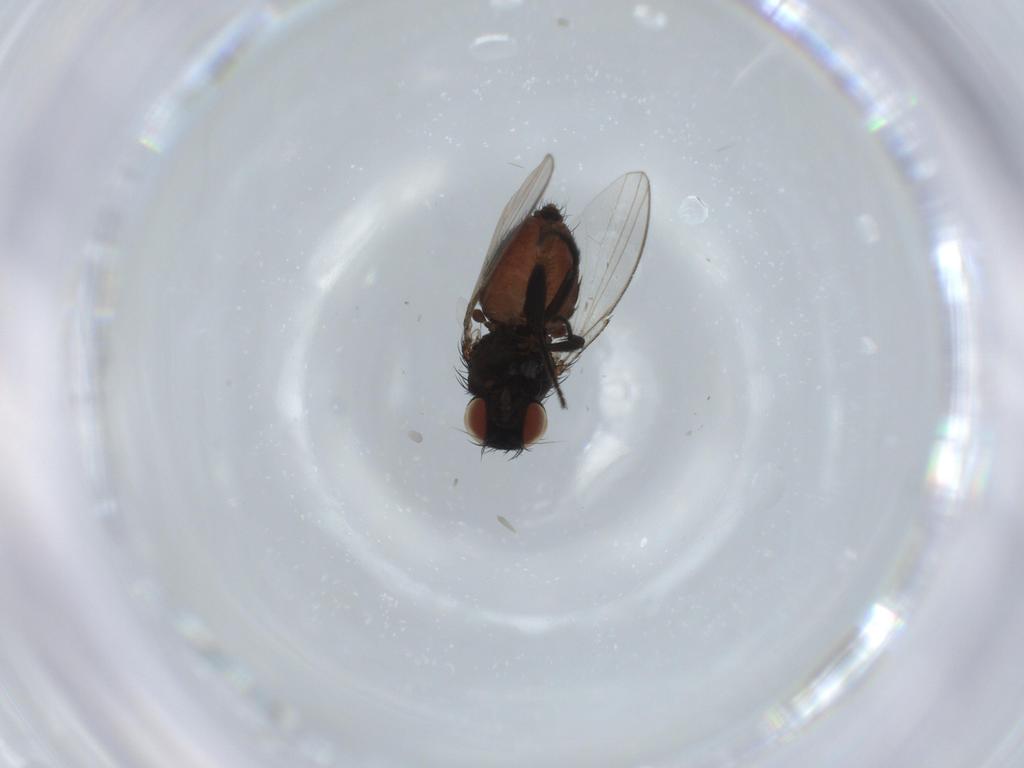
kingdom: Animalia
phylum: Arthropoda
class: Insecta
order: Diptera
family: Milichiidae
